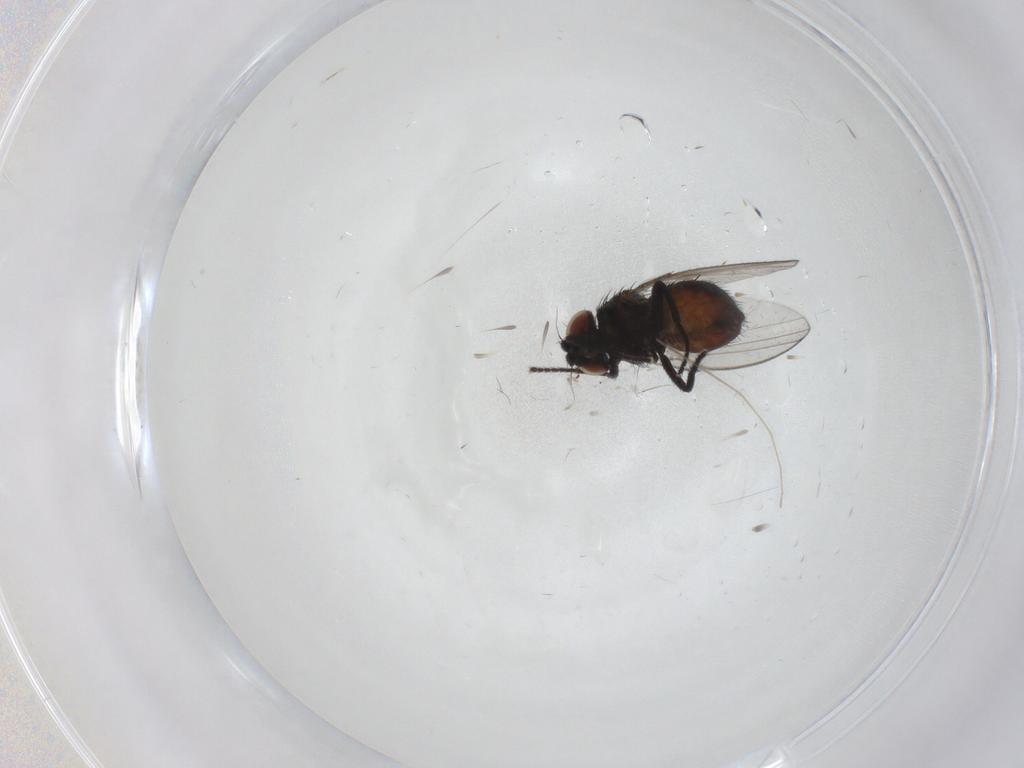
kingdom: Animalia
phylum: Arthropoda
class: Insecta
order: Diptera
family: Milichiidae
